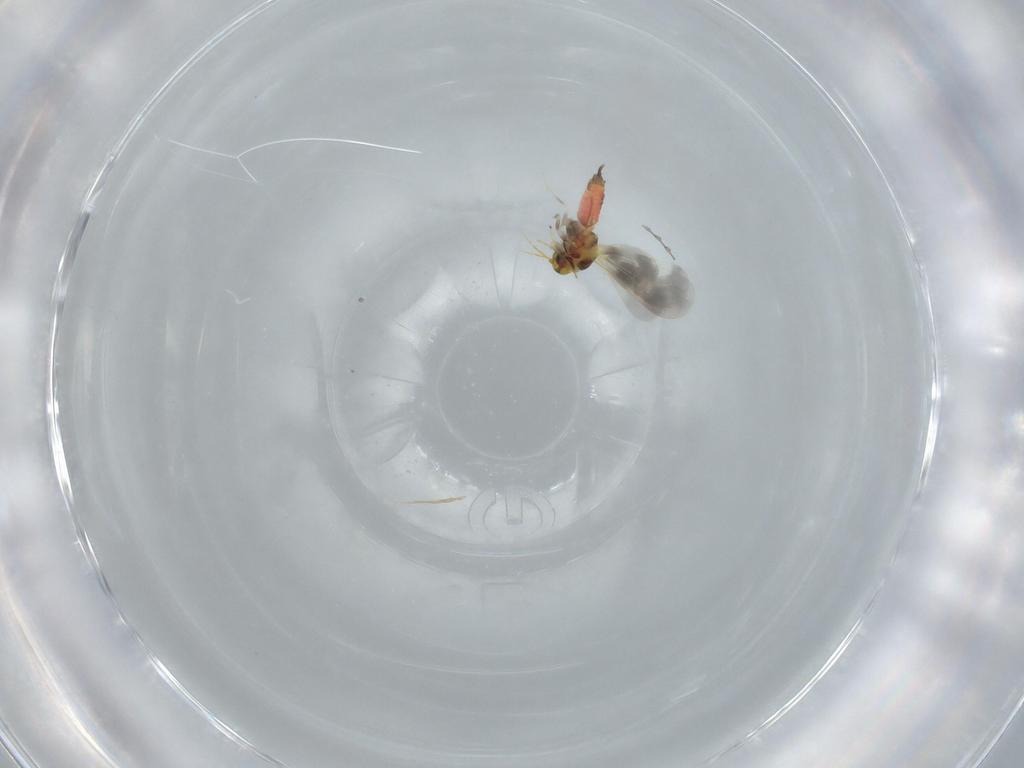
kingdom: Animalia
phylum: Arthropoda
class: Insecta
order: Hemiptera
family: Aleyrodidae
